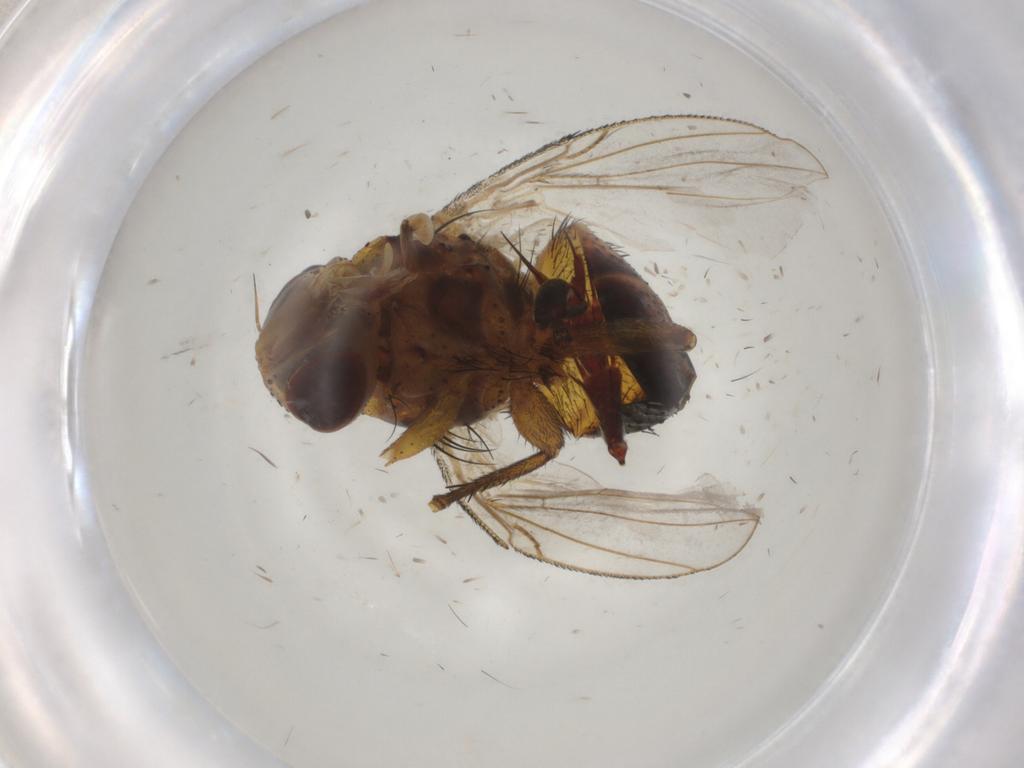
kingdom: Animalia
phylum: Arthropoda
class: Insecta
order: Diptera
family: Glossinidae
